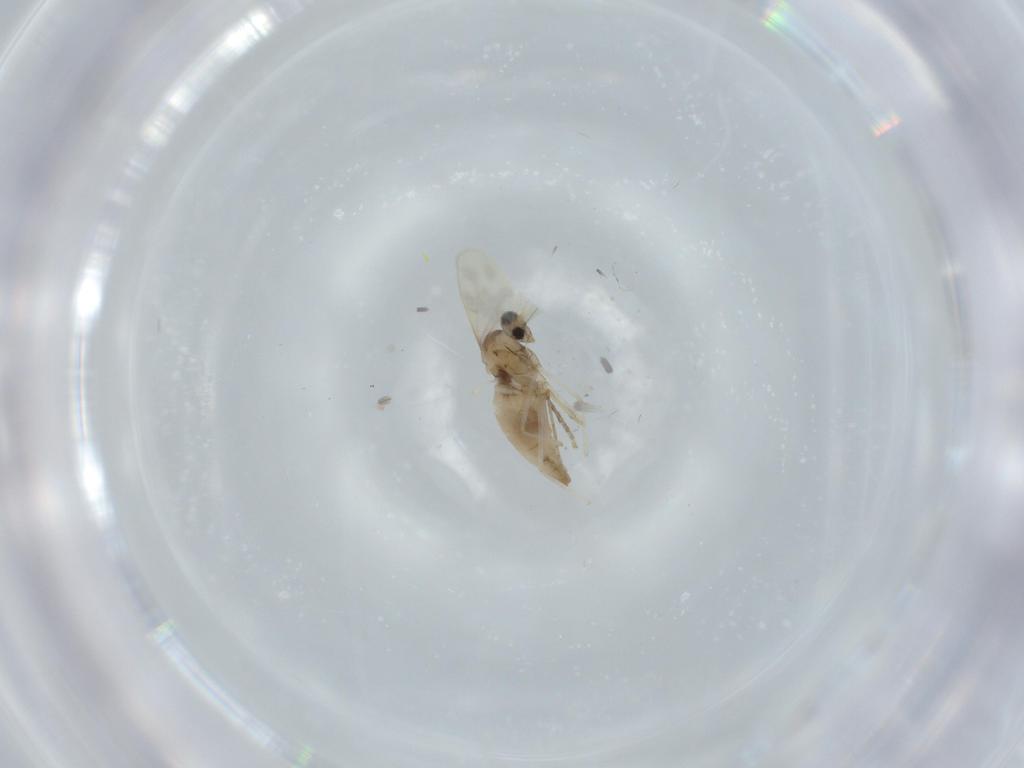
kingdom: Animalia
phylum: Arthropoda
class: Insecta
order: Diptera
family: Cecidomyiidae
